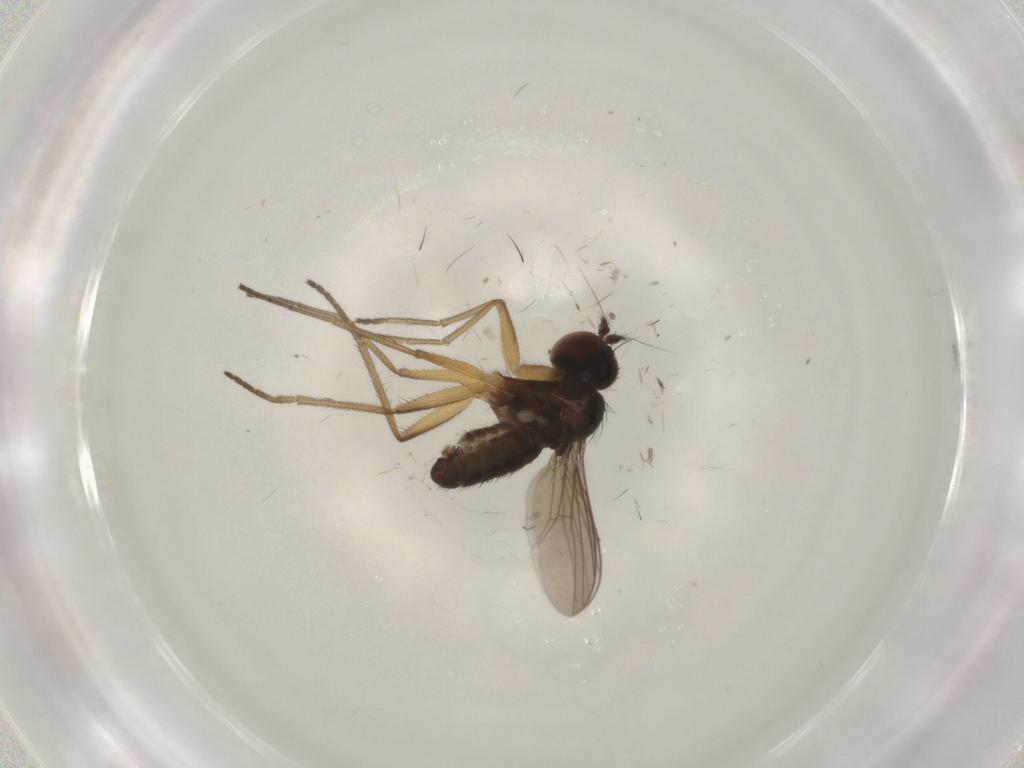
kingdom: Animalia
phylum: Arthropoda
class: Insecta
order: Diptera
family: Dolichopodidae
